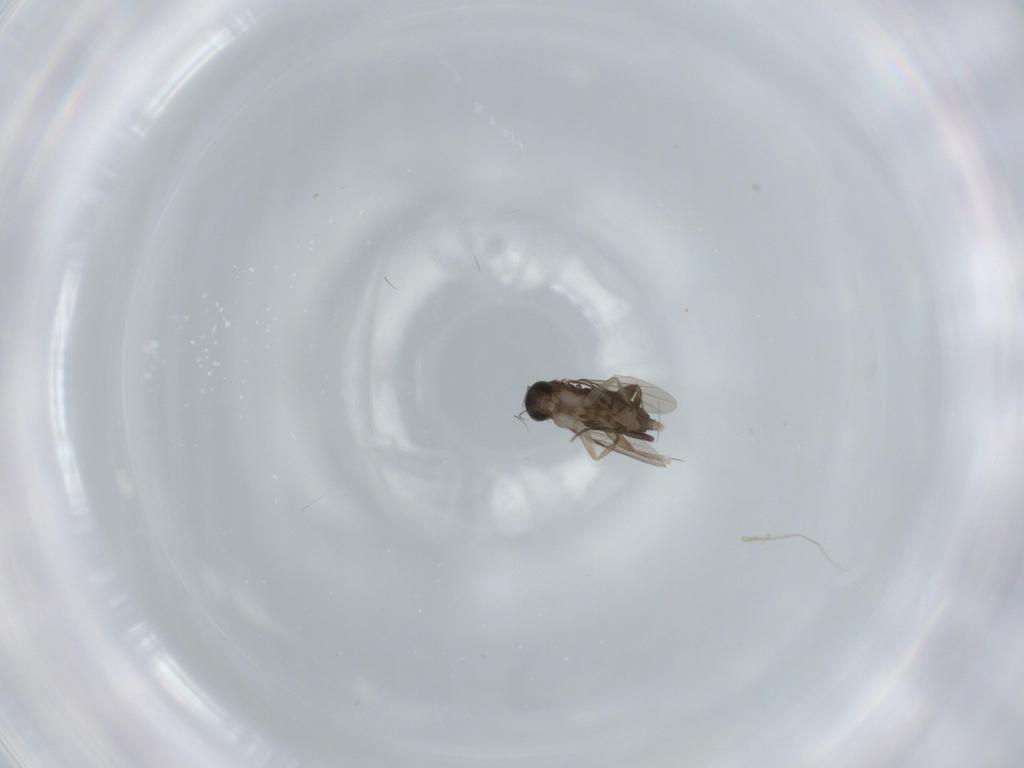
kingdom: Animalia
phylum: Arthropoda
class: Insecta
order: Diptera
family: Phoridae
